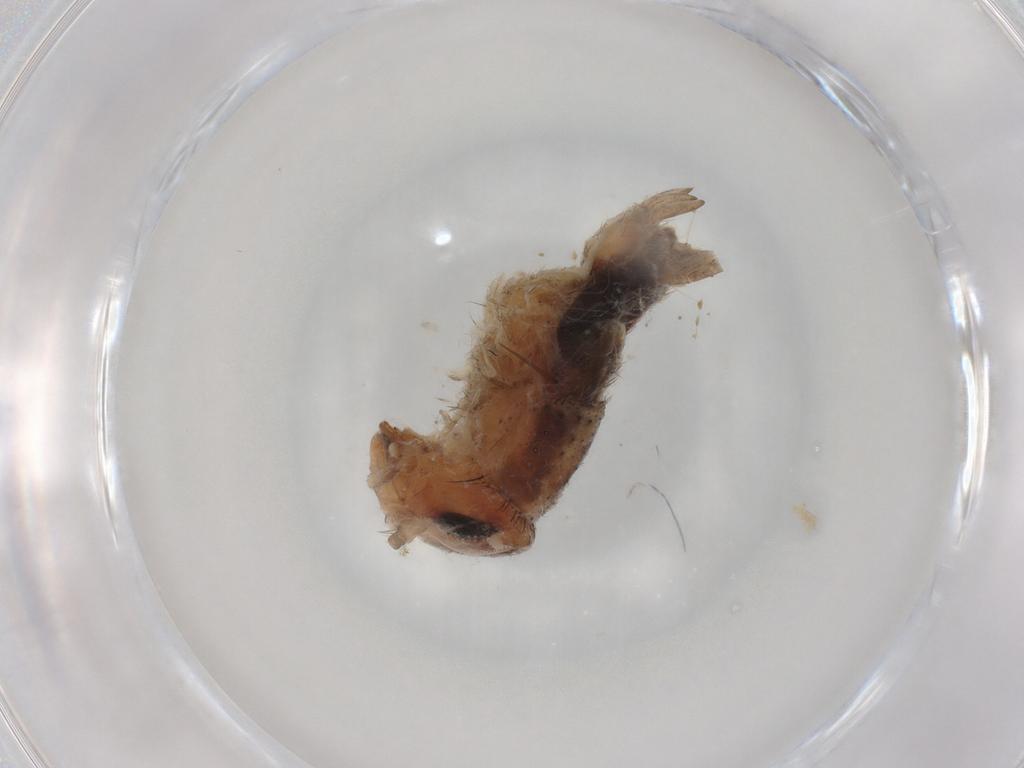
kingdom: Animalia
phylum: Arthropoda
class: Insecta
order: Orthoptera
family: Tettigoniidae
